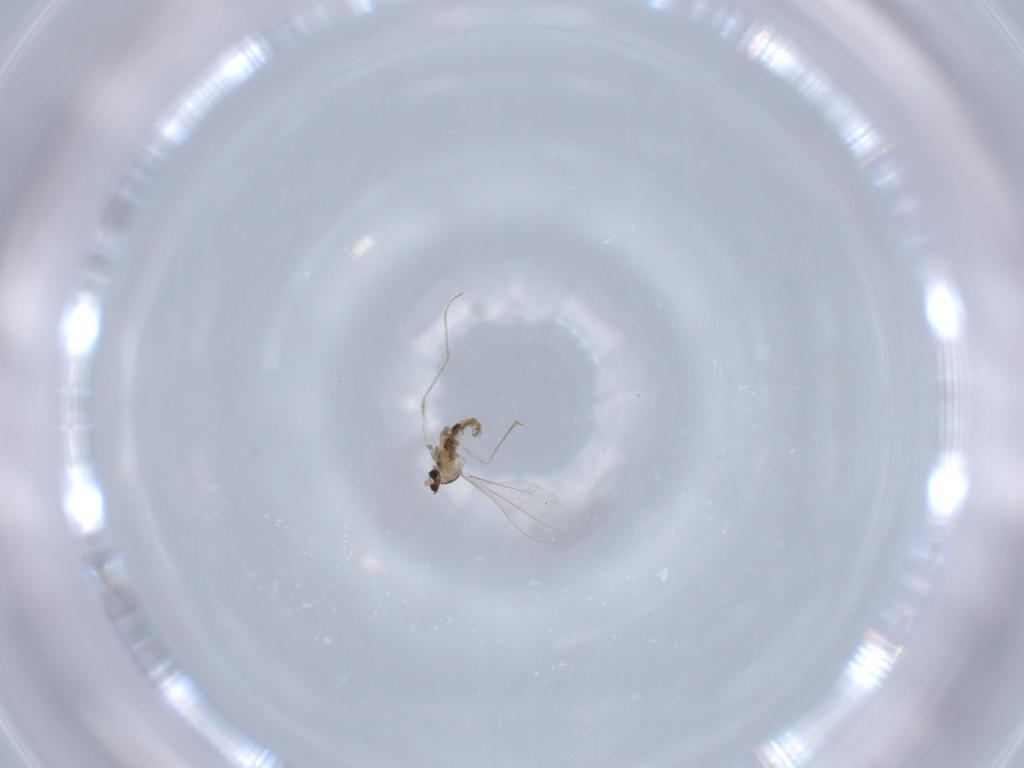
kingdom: Animalia
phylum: Arthropoda
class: Insecta
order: Diptera
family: Cecidomyiidae
